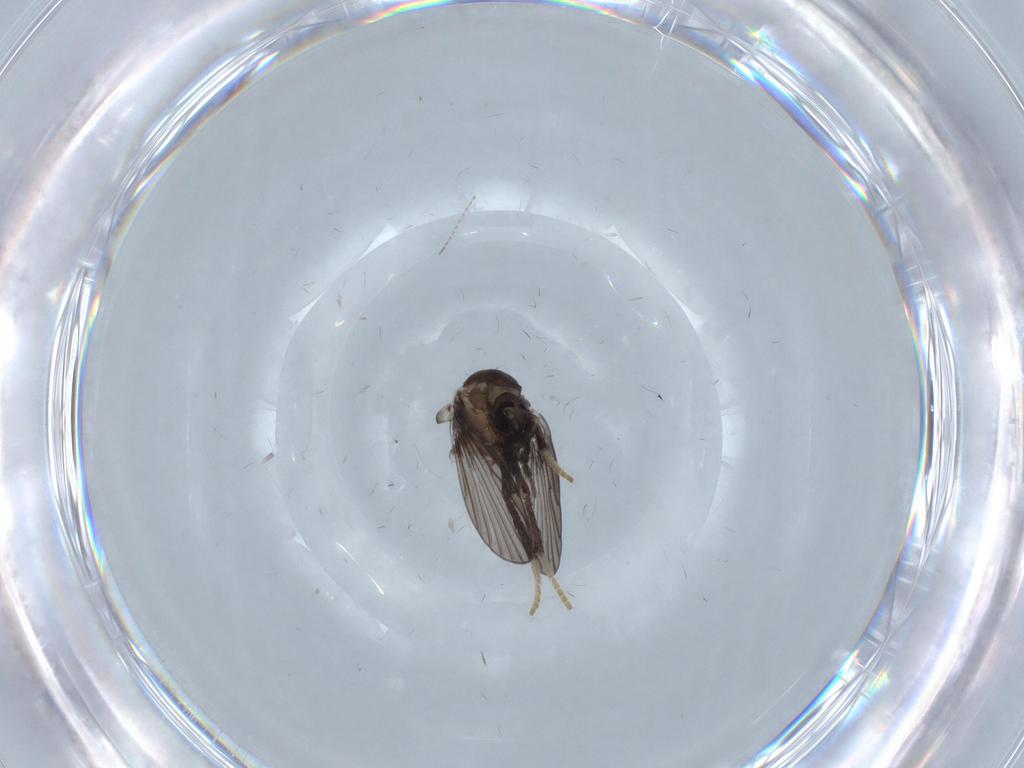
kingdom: Animalia
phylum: Arthropoda
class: Insecta
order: Diptera
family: Psychodidae
